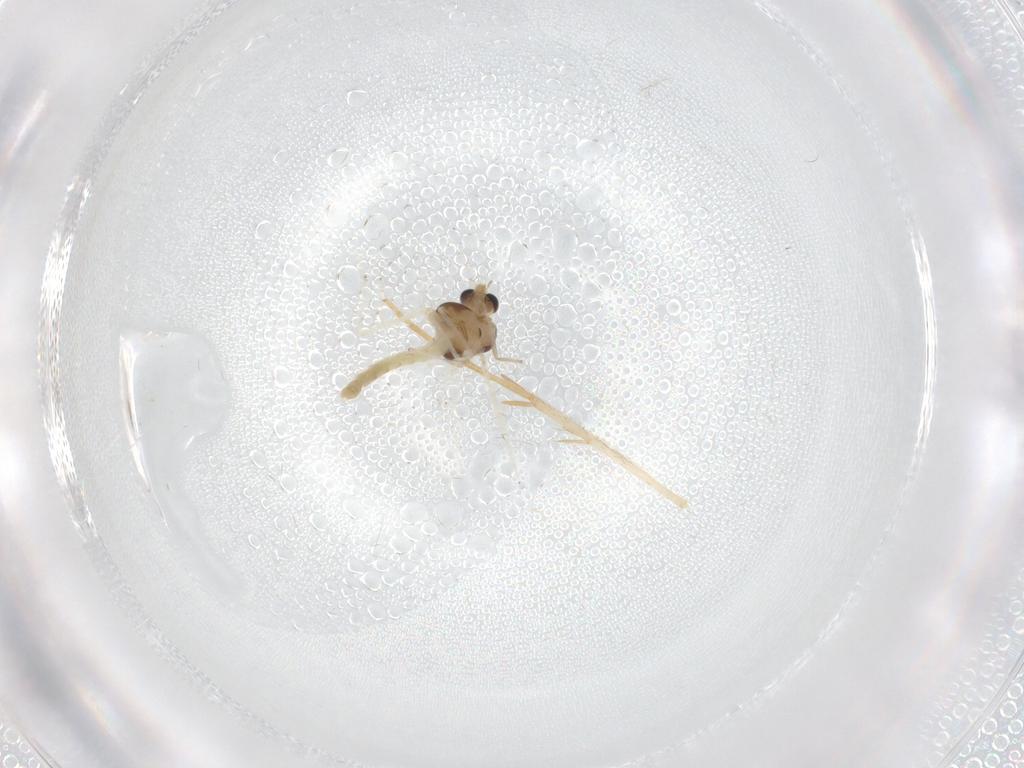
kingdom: Animalia
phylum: Arthropoda
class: Insecta
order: Diptera
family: Chironomidae
